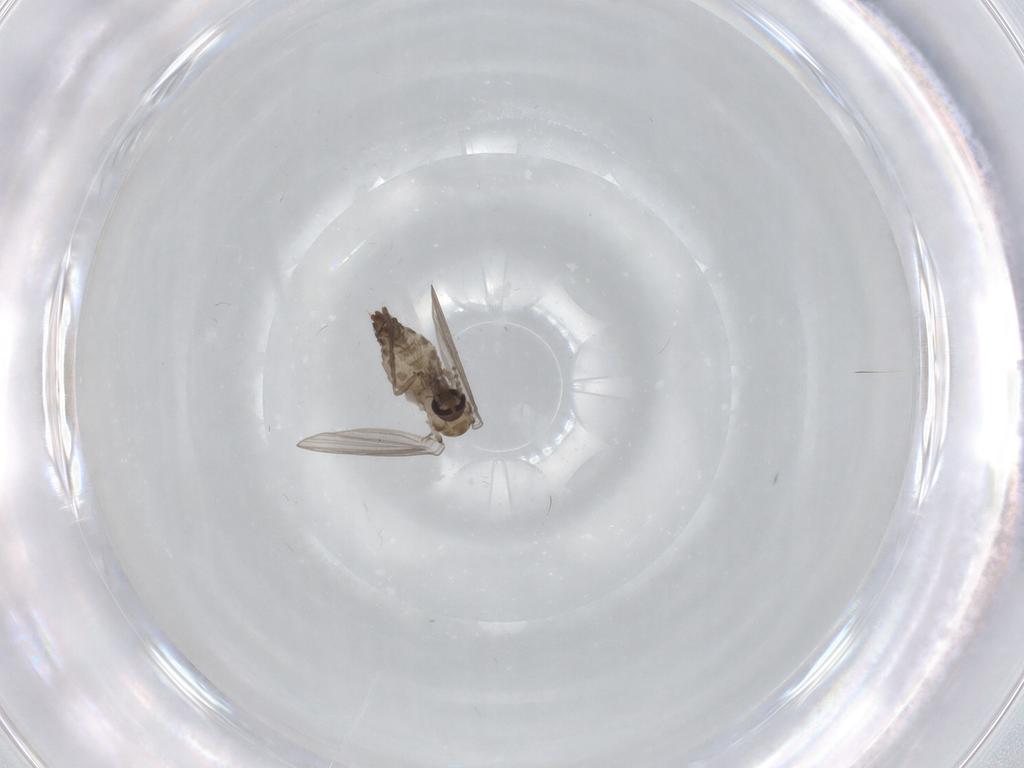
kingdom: Animalia
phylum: Arthropoda
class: Insecta
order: Diptera
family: Psychodidae
